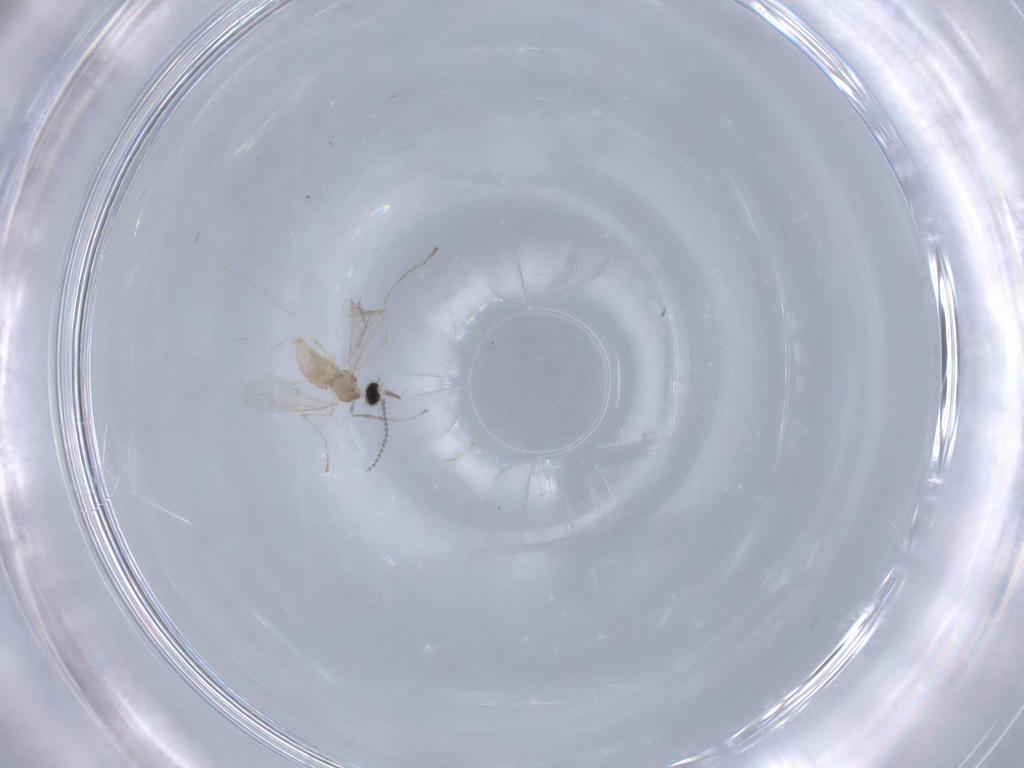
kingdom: Animalia
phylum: Arthropoda
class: Insecta
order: Diptera
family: Cecidomyiidae
